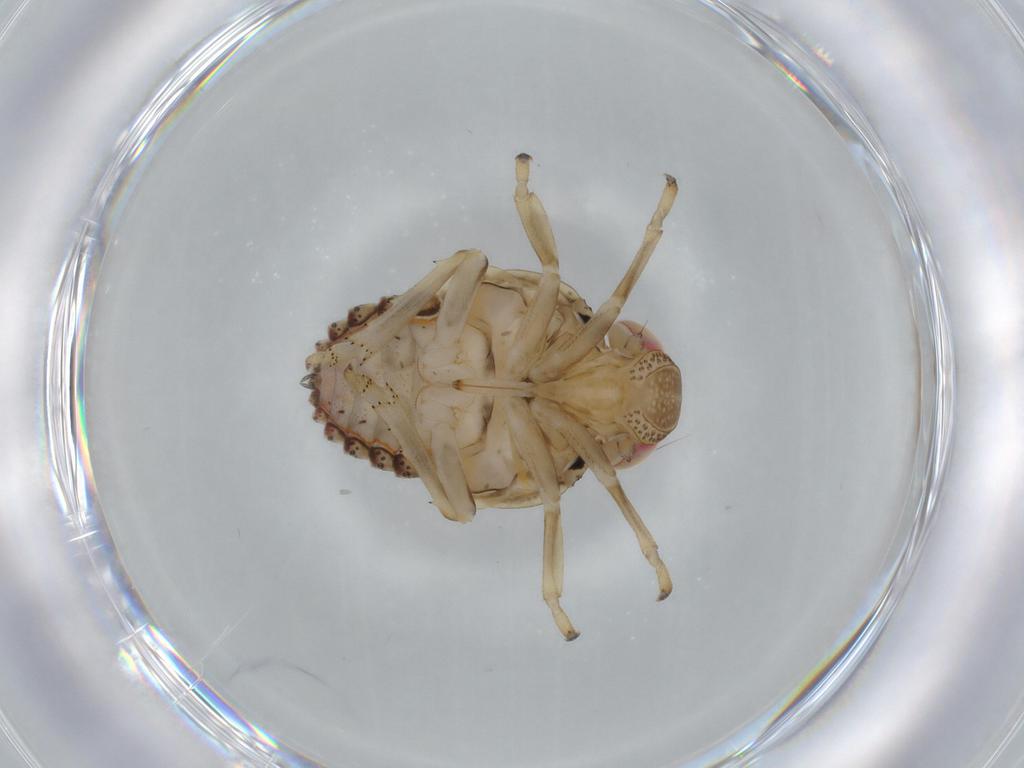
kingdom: Animalia
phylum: Arthropoda
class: Insecta
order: Hemiptera
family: Issidae
